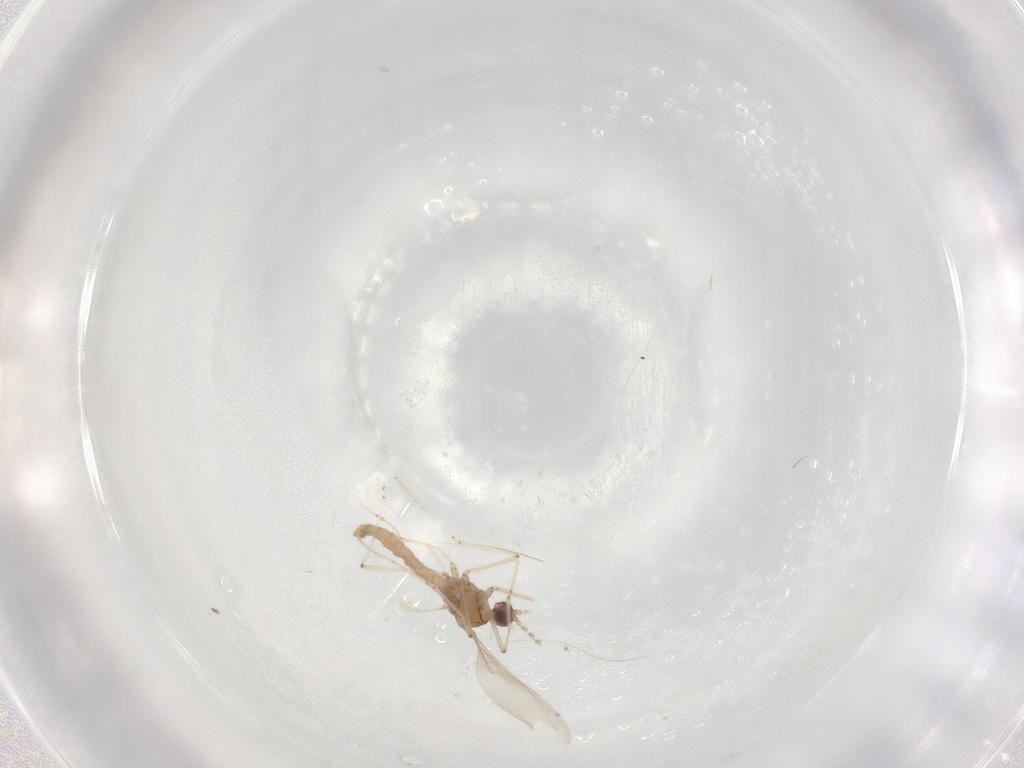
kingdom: Animalia
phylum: Arthropoda
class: Insecta
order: Diptera
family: Cecidomyiidae
